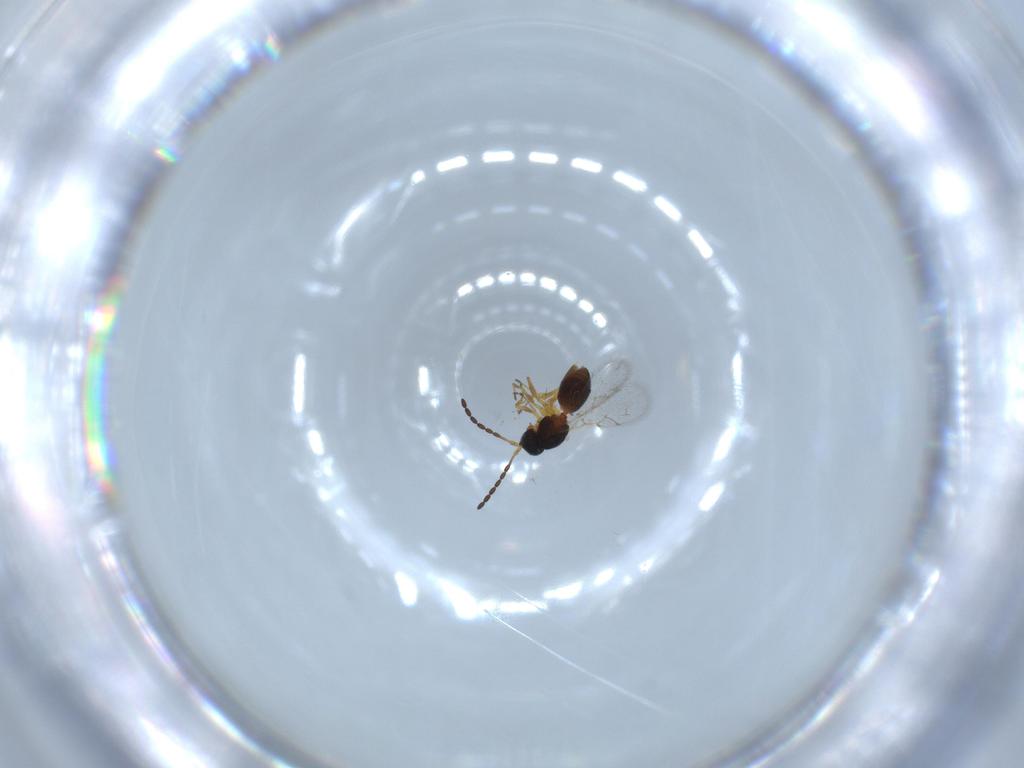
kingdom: Animalia
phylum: Arthropoda
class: Insecta
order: Hymenoptera
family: Figitidae
